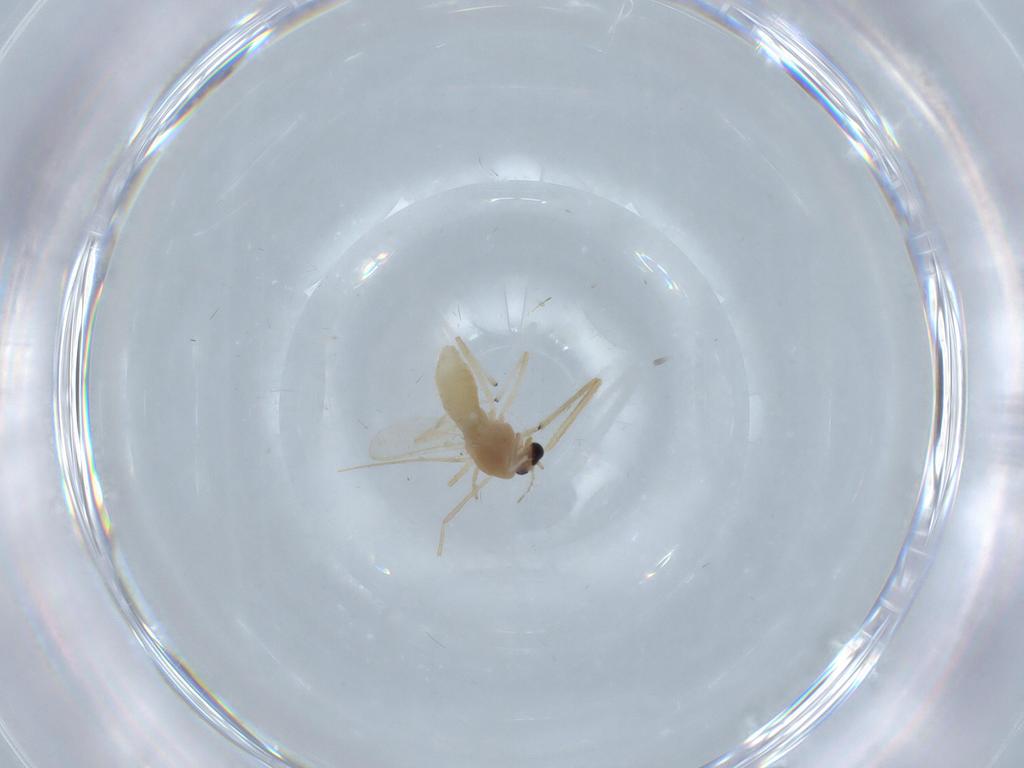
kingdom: Animalia
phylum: Arthropoda
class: Insecta
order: Diptera
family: Chironomidae
